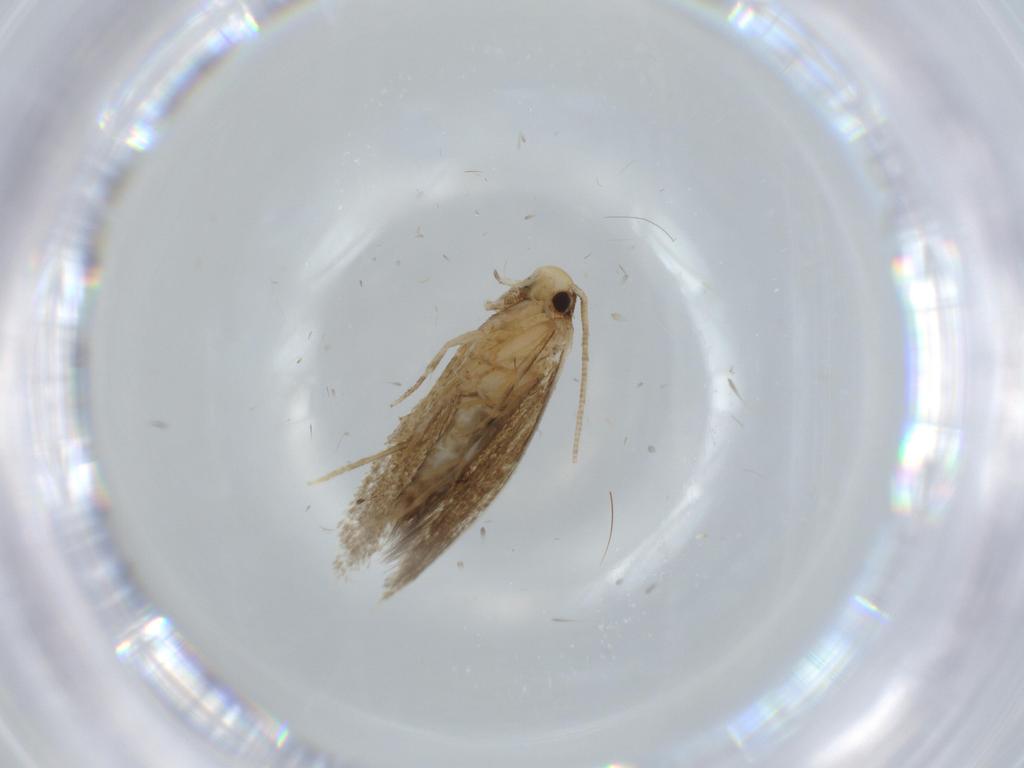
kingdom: Animalia
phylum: Arthropoda
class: Insecta
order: Lepidoptera
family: Tineidae
